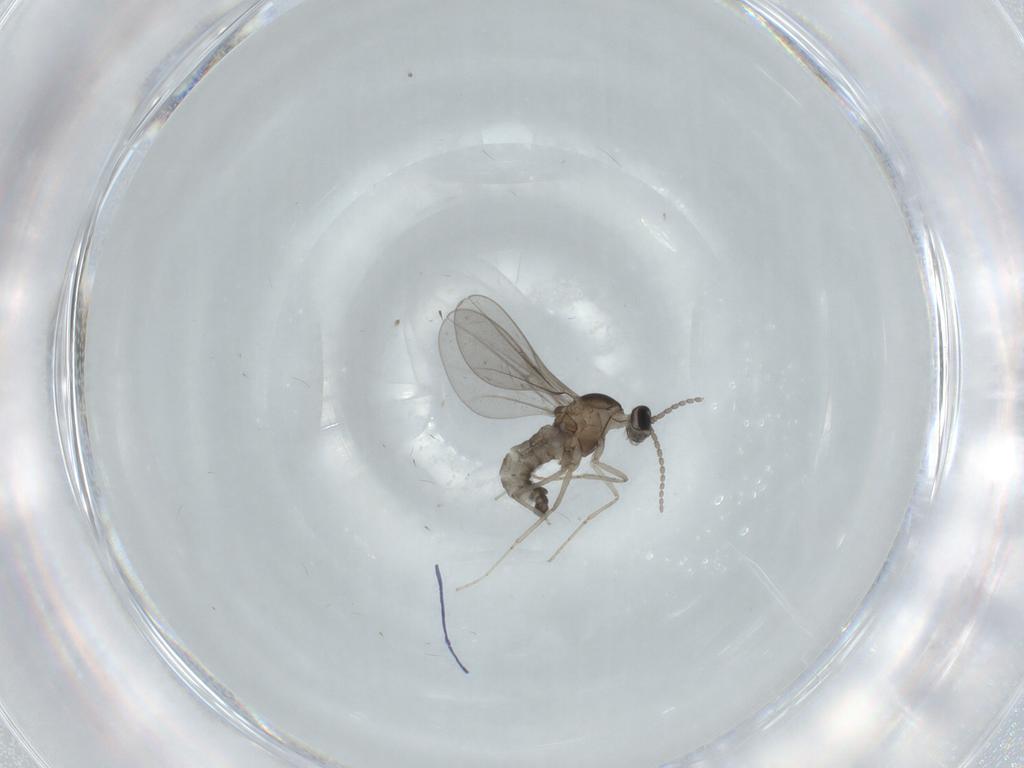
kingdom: Animalia
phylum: Arthropoda
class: Insecta
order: Diptera
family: Cecidomyiidae
